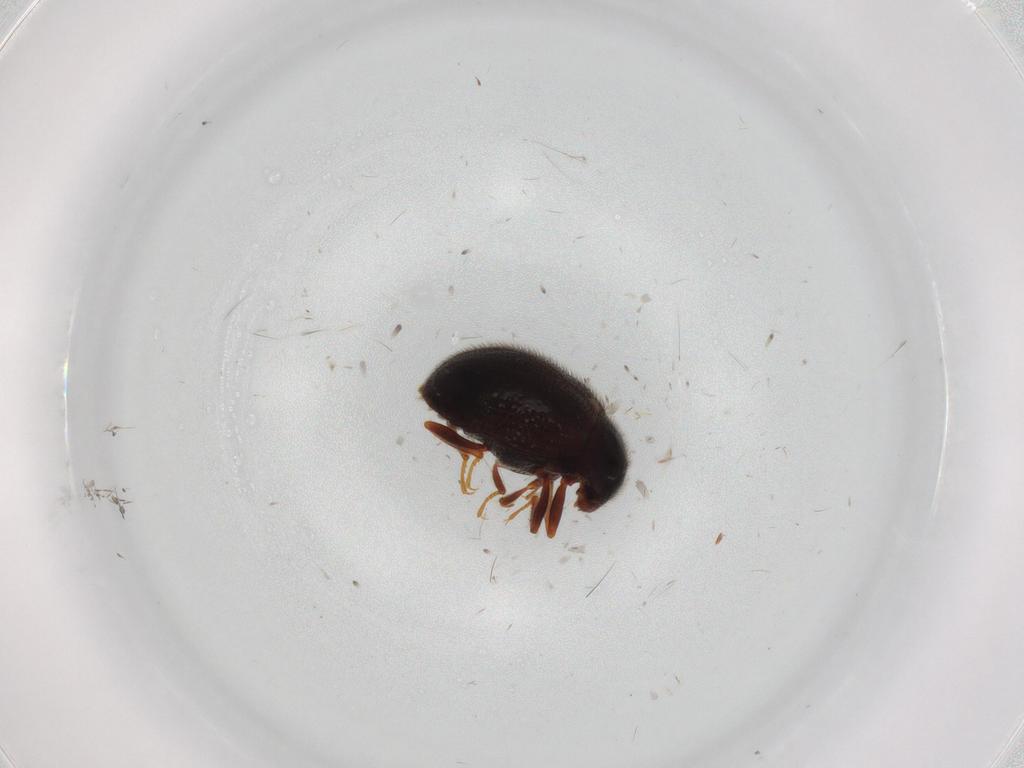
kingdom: Animalia
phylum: Arthropoda
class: Insecta
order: Coleoptera
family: Sphindidae
